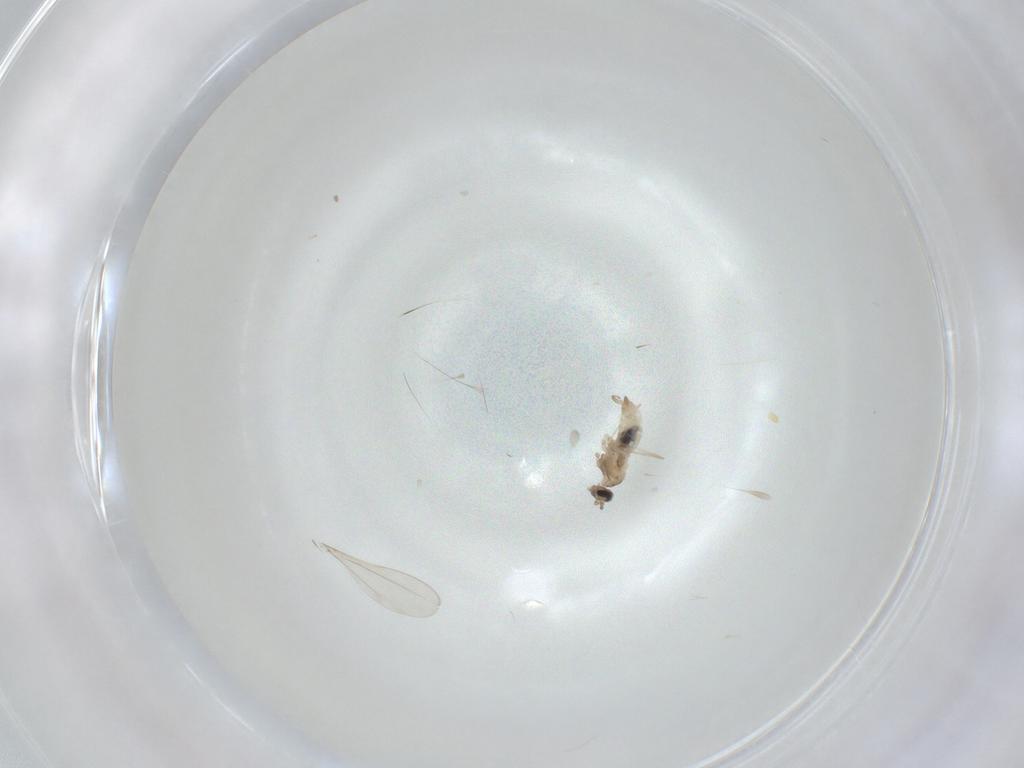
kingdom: Animalia
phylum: Arthropoda
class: Insecta
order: Diptera
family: Cecidomyiidae
